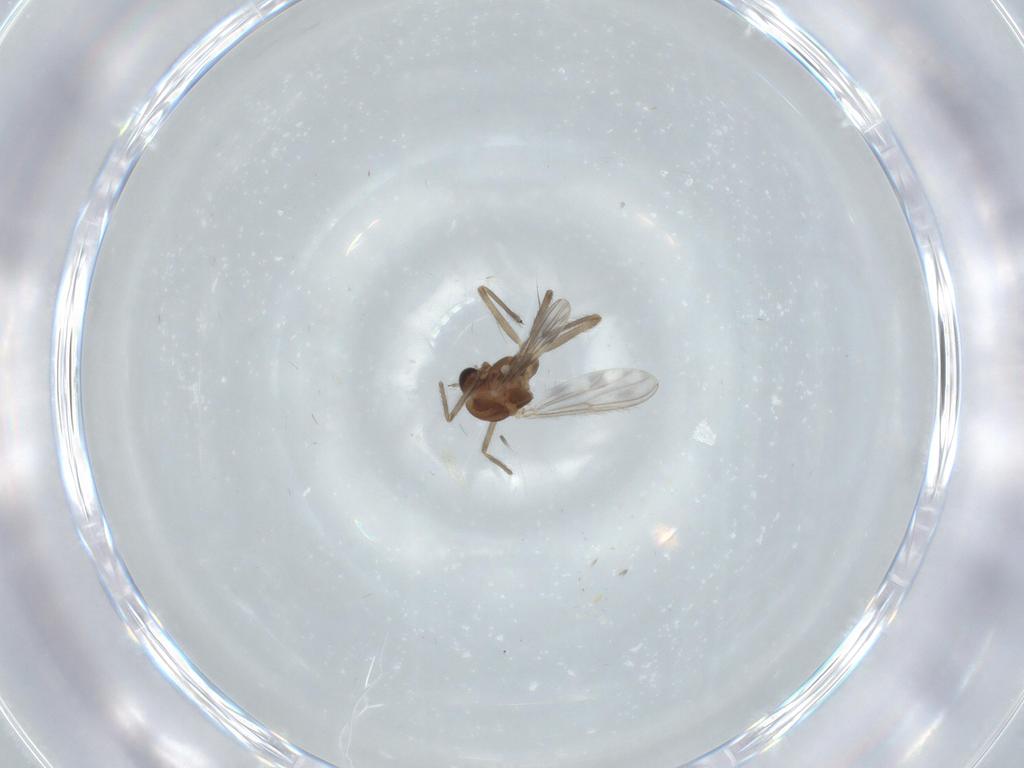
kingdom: Animalia
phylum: Arthropoda
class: Insecta
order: Diptera
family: Chironomidae
